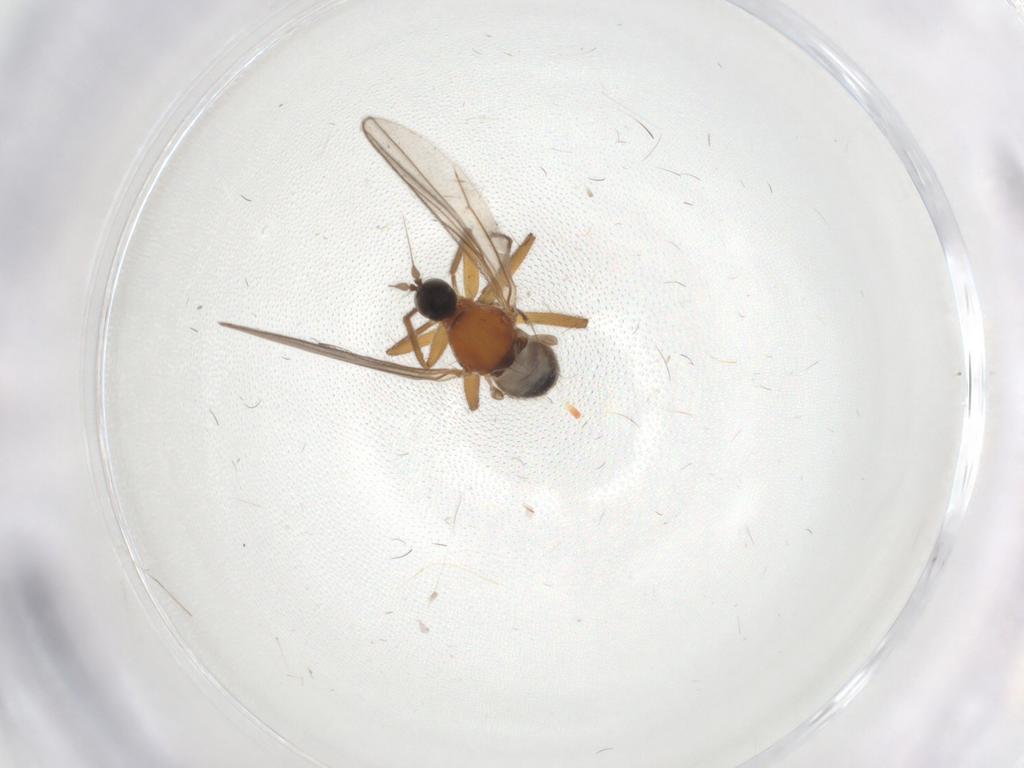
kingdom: Animalia
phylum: Arthropoda
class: Insecta
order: Diptera
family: Hybotidae
